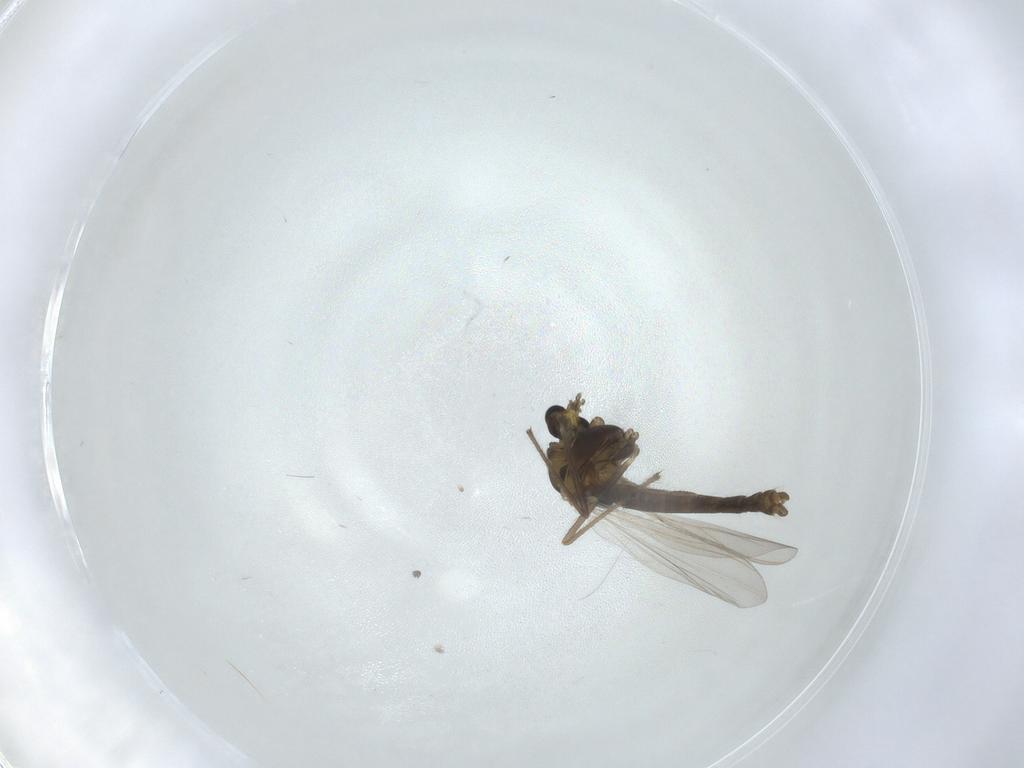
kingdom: Animalia
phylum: Arthropoda
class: Insecta
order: Diptera
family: Chironomidae
